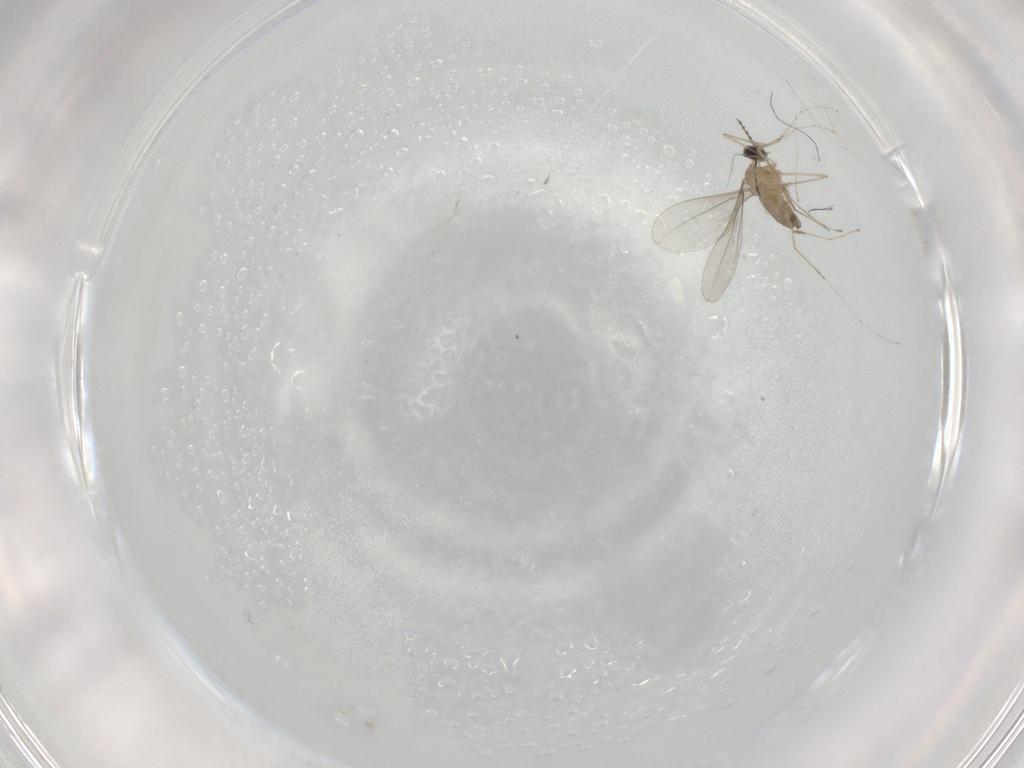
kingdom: Animalia
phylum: Arthropoda
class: Insecta
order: Diptera
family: Cecidomyiidae
